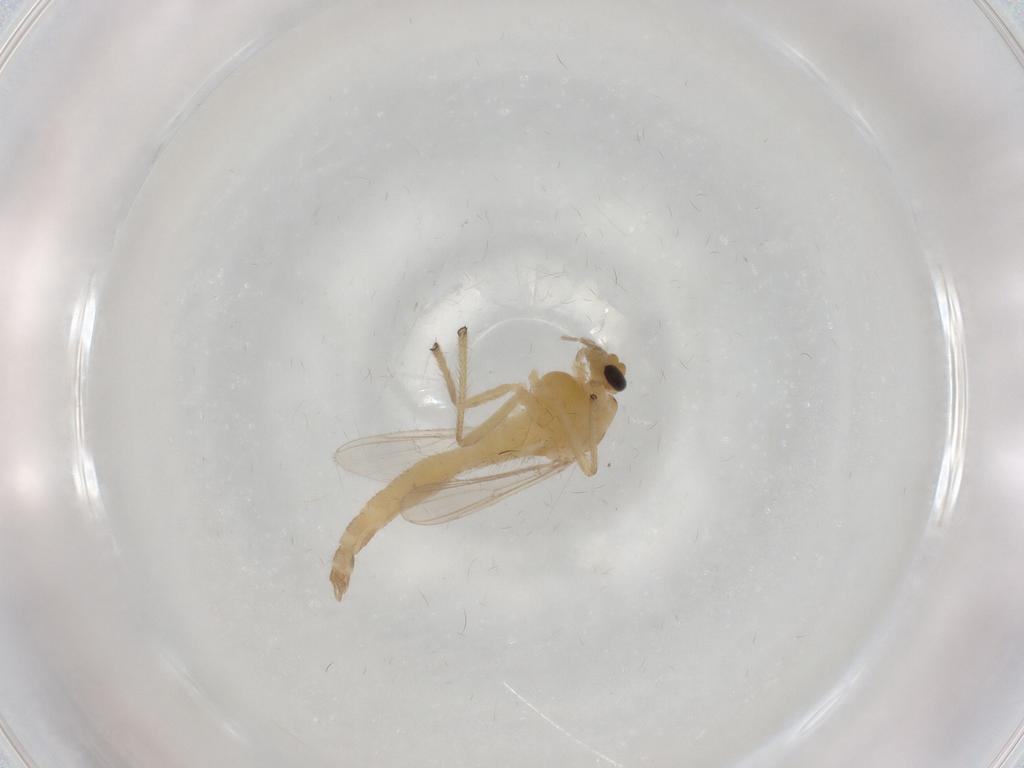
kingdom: Animalia
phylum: Arthropoda
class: Insecta
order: Diptera
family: Chironomidae
